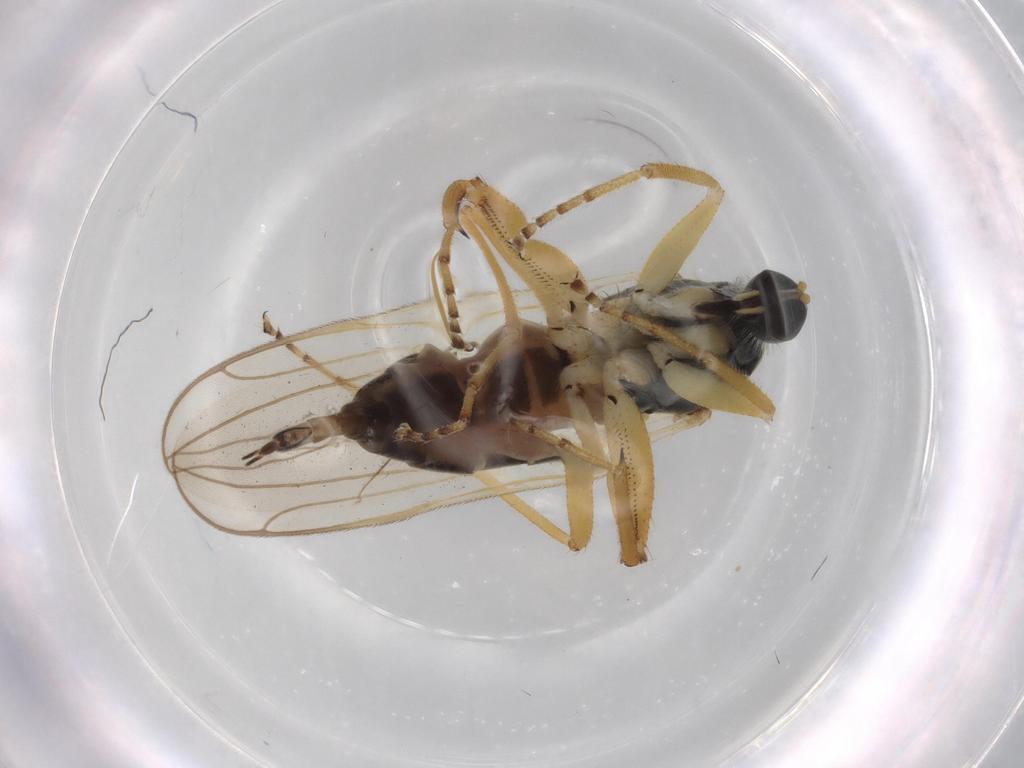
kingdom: Animalia
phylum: Arthropoda
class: Insecta
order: Diptera
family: Hybotidae
